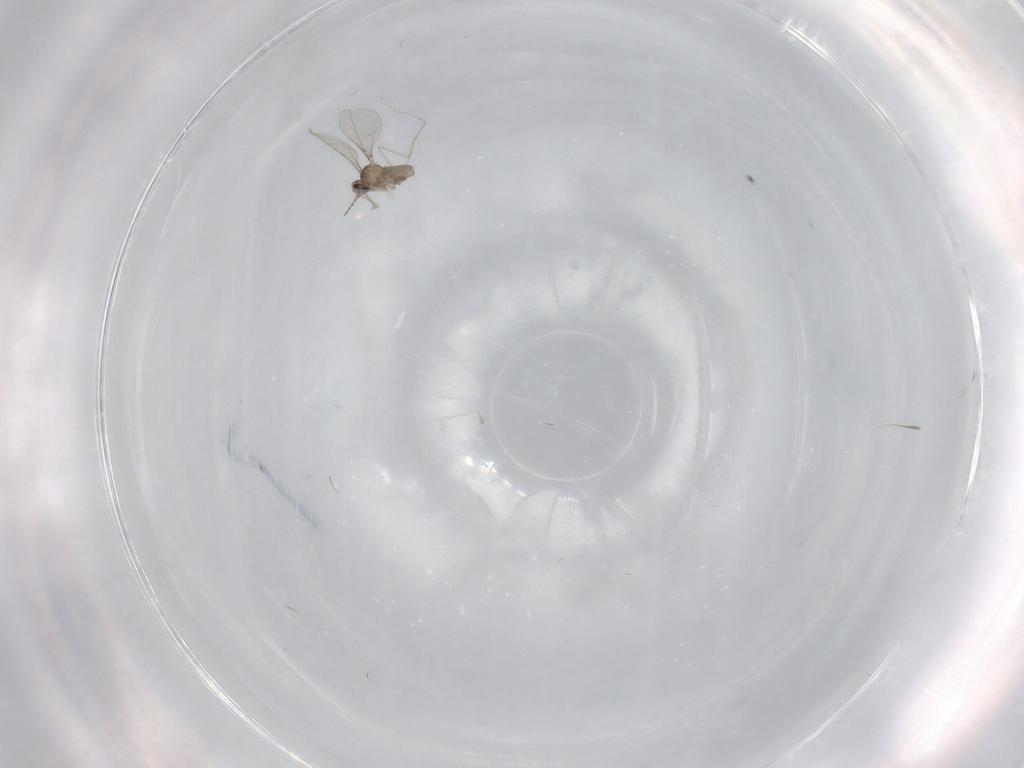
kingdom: Animalia
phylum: Arthropoda
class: Insecta
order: Diptera
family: Cecidomyiidae
